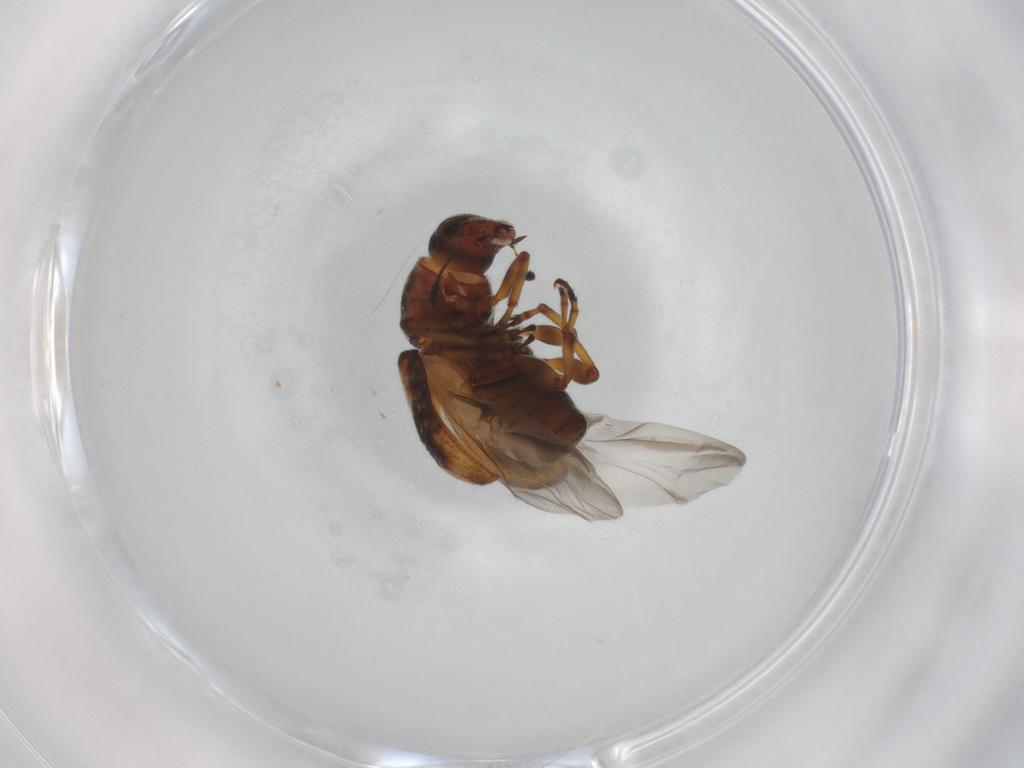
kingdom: Animalia
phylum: Arthropoda
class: Insecta
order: Coleoptera
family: Anthribidae
